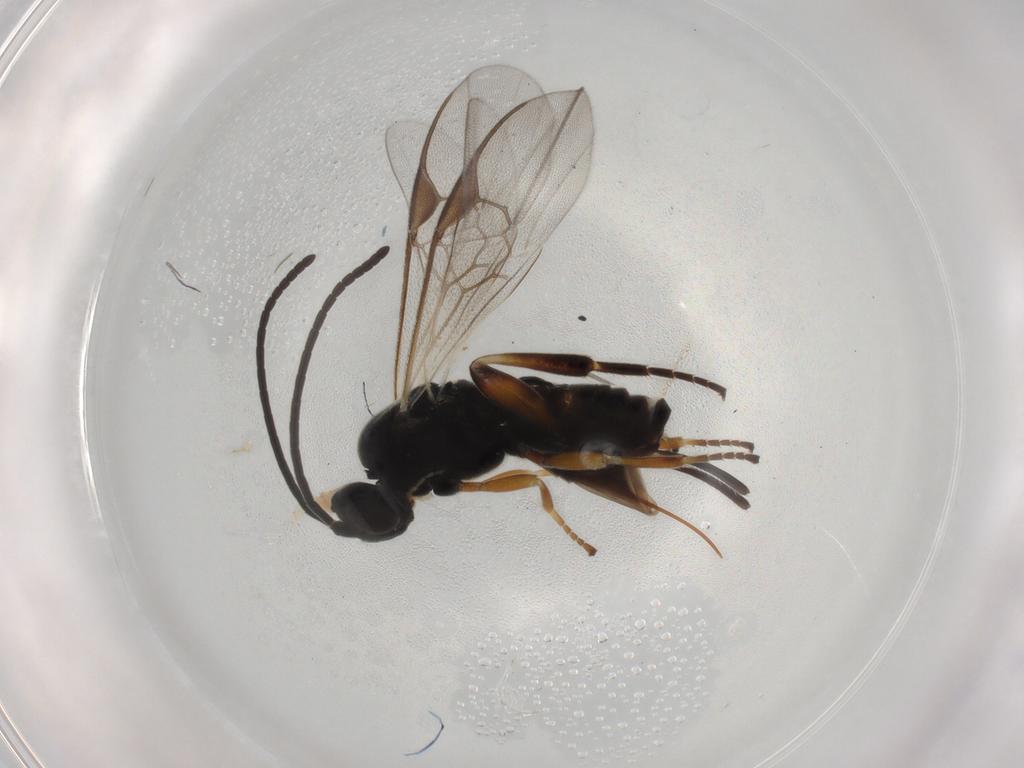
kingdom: Animalia
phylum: Arthropoda
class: Insecta
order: Hymenoptera
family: Braconidae
